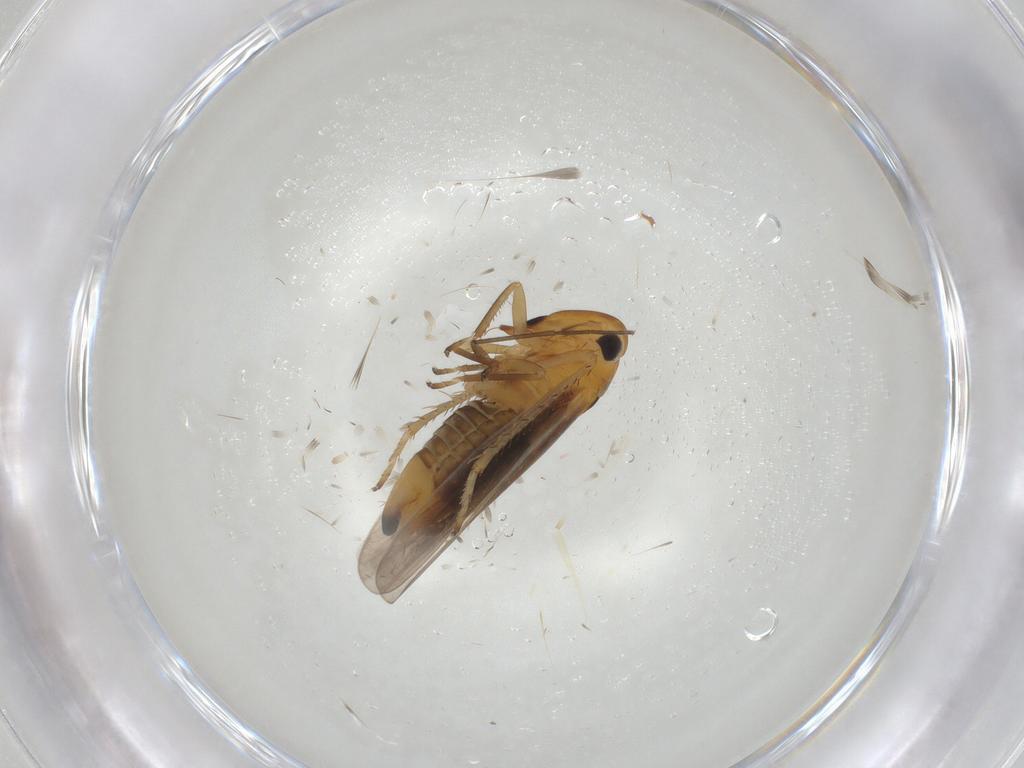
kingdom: Animalia
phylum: Arthropoda
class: Insecta
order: Hemiptera
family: Cicadellidae
